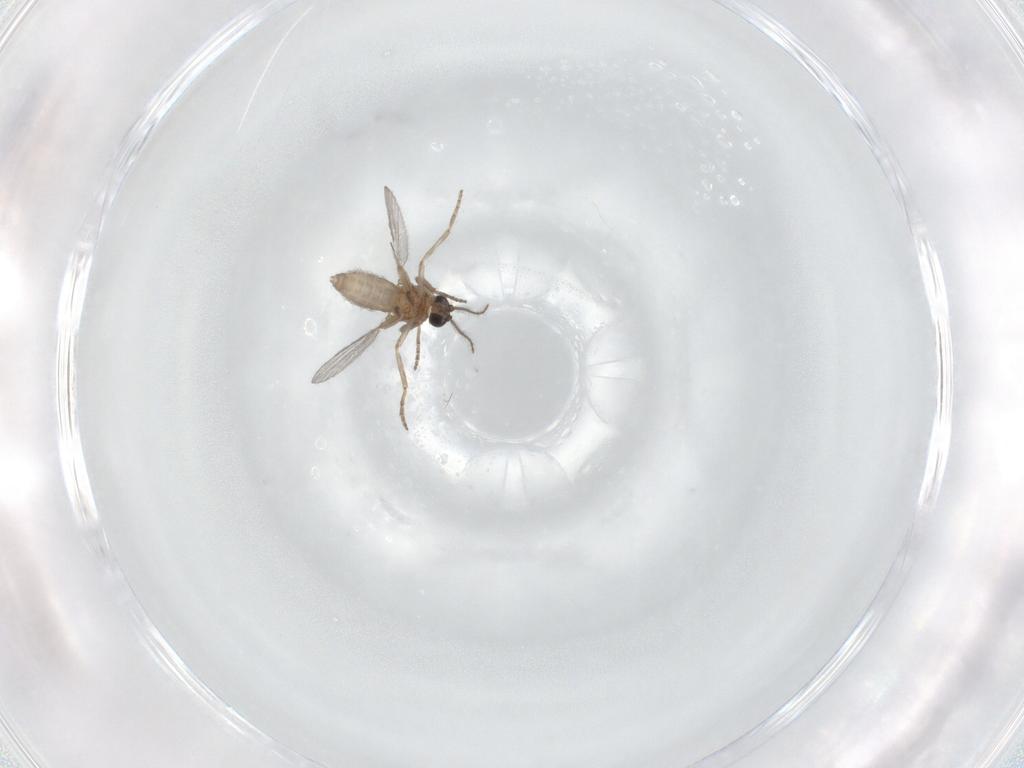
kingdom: Animalia
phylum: Arthropoda
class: Insecta
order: Diptera
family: Dolichopodidae
